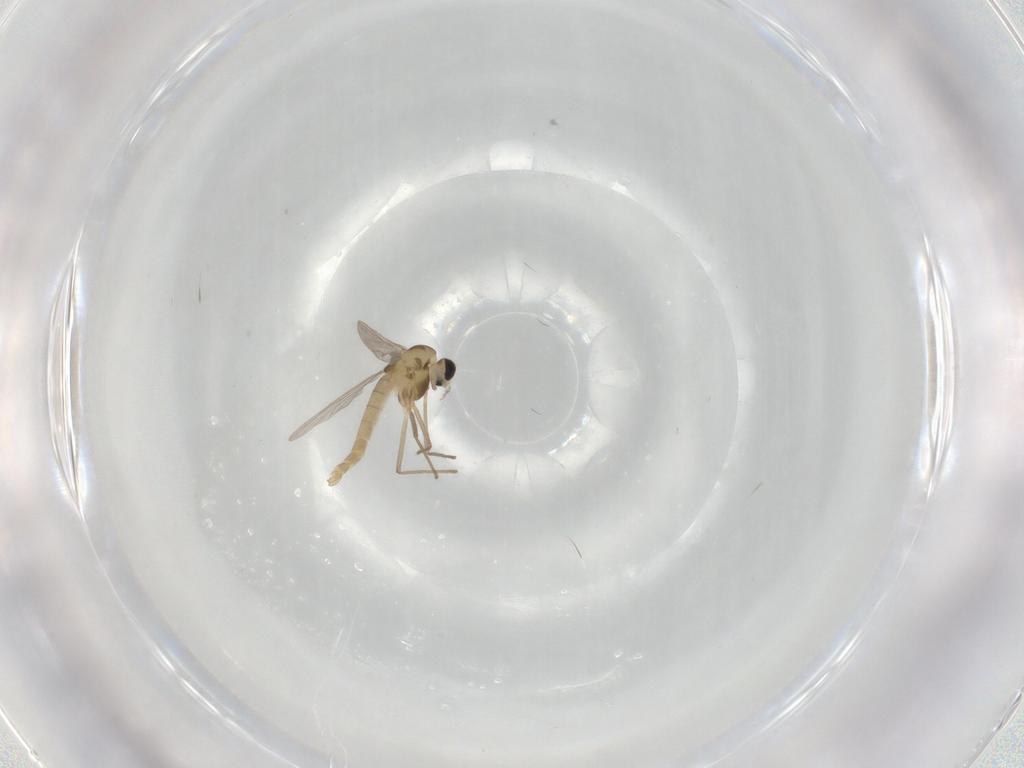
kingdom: Animalia
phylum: Arthropoda
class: Insecta
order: Diptera
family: Chironomidae
